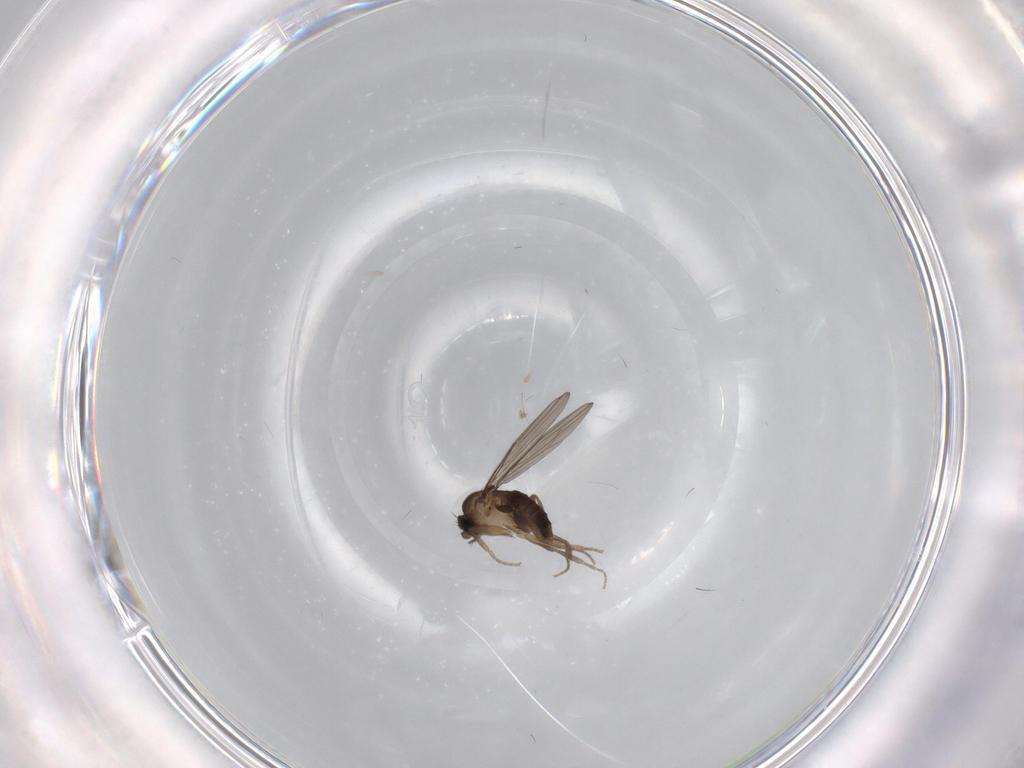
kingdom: Animalia
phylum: Arthropoda
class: Insecta
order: Diptera
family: Phoridae
